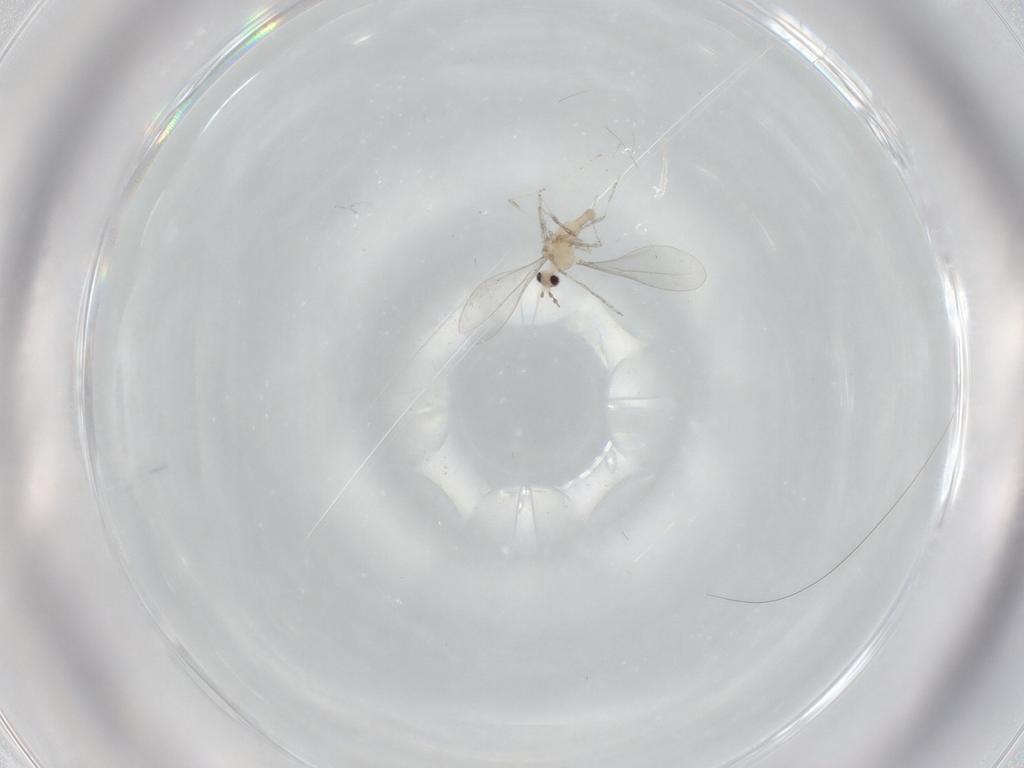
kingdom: Animalia
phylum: Arthropoda
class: Insecta
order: Diptera
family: Cecidomyiidae
